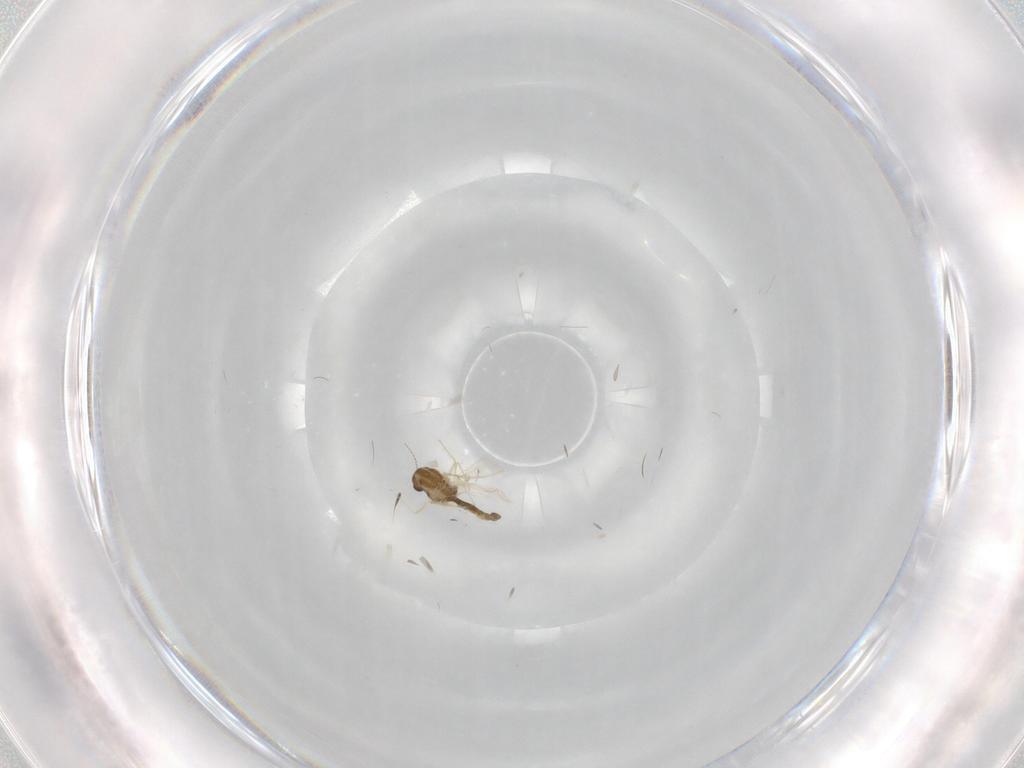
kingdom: Animalia
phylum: Arthropoda
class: Insecta
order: Diptera
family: Chironomidae
